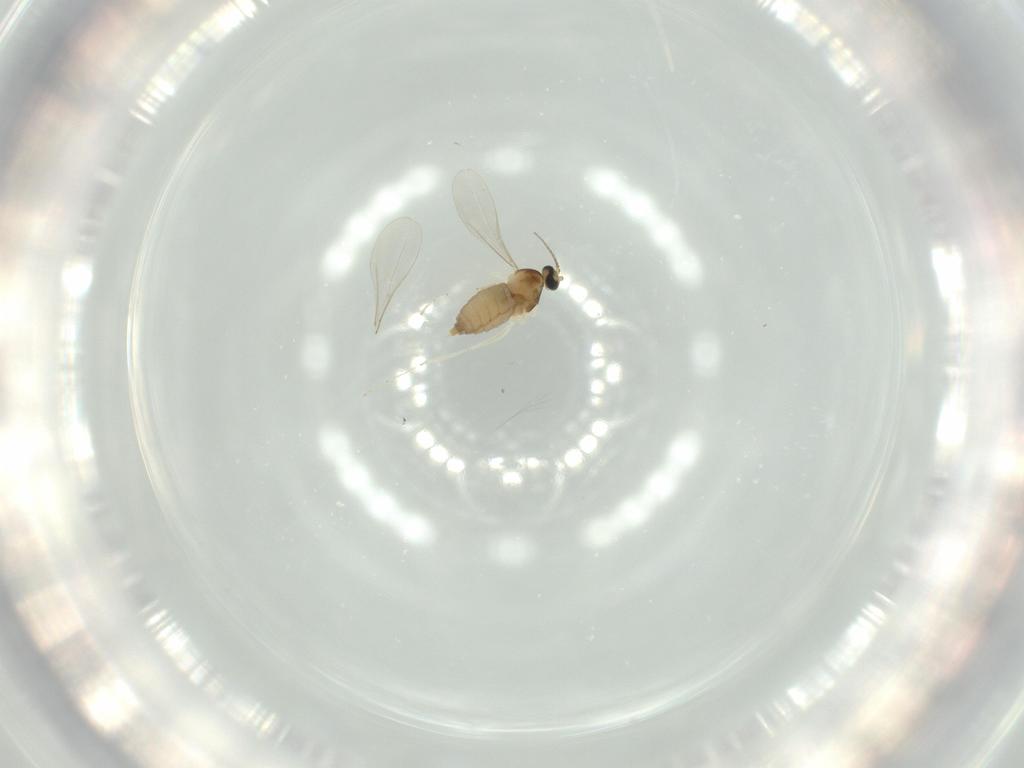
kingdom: Animalia
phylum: Arthropoda
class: Insecta
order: Diptera
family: Sciaridae
